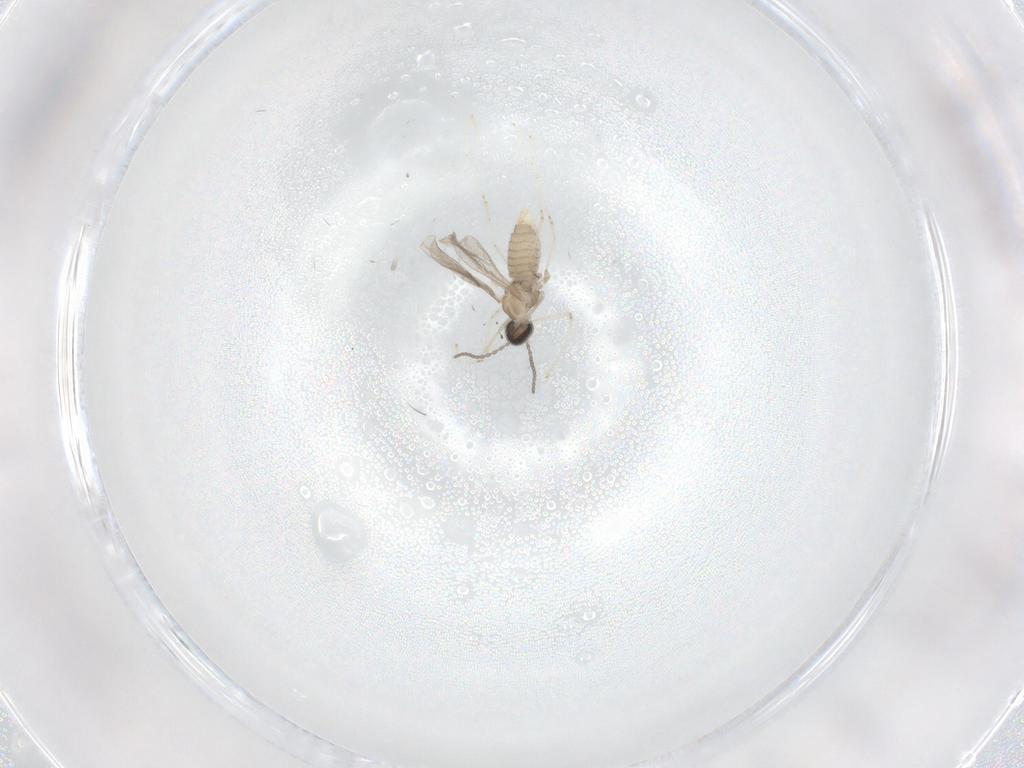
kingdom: Animalia
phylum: Arthropoda
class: Insecta
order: Diptera
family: Cecidomyiidae
